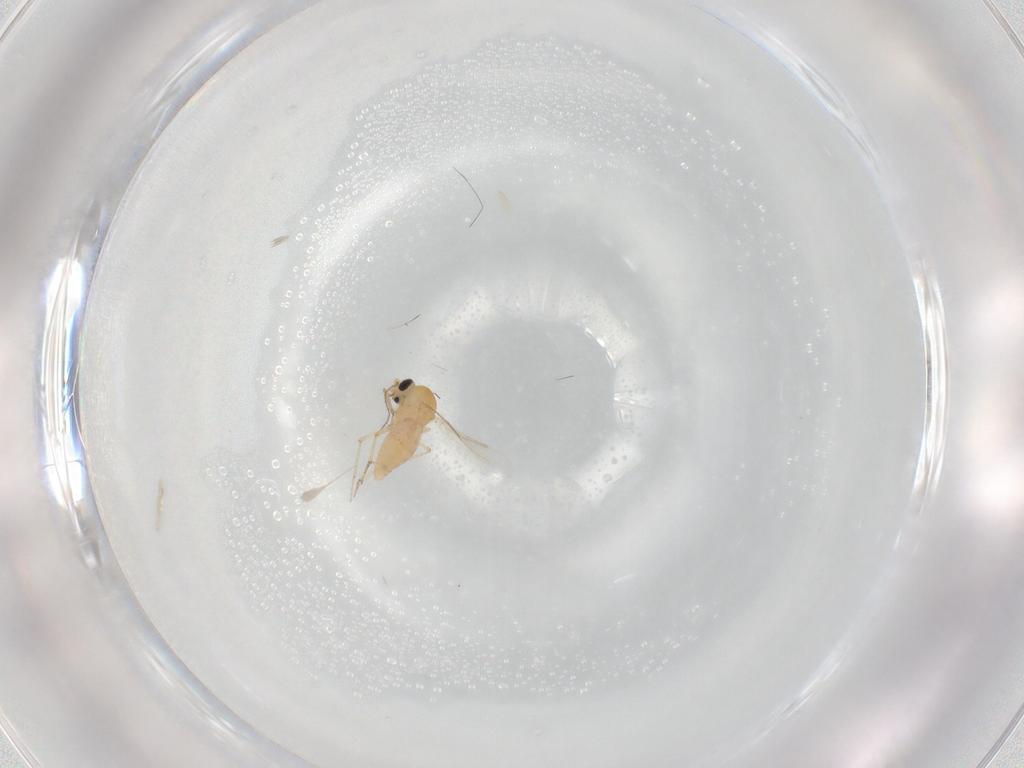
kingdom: Animalia
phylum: Arthropoda
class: Insecta
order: Diptera
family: Ceratopogonidae
